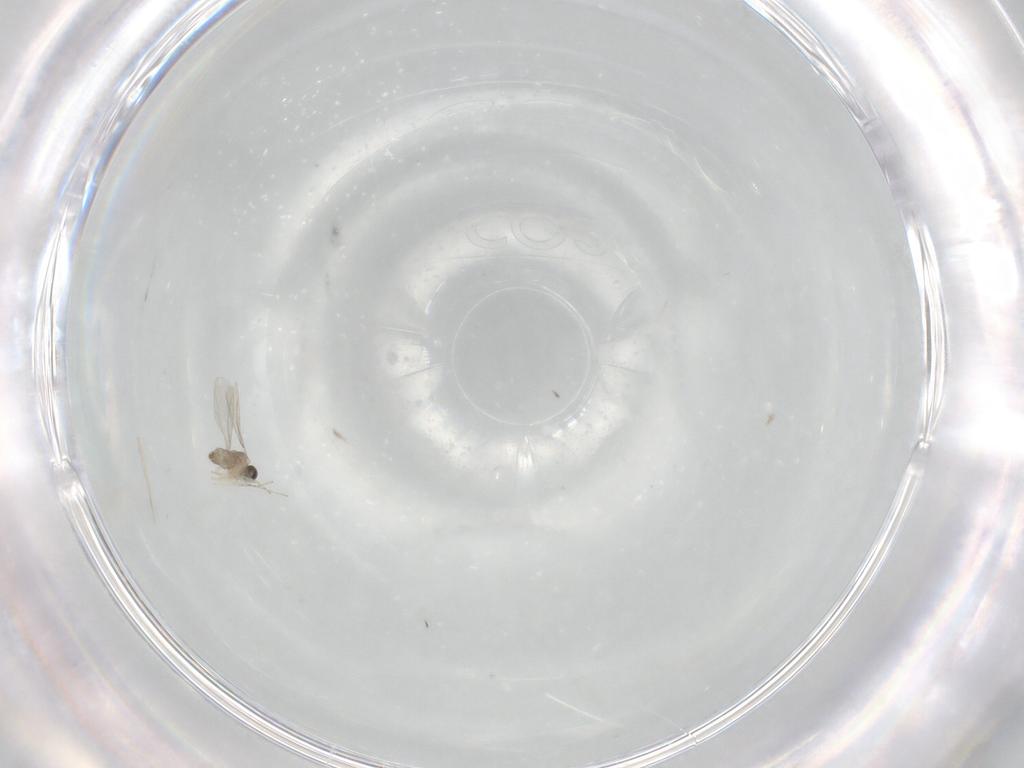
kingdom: Animalia
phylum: Arthropoda
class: Insecta
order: Diptera
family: Cecidomyiidae
